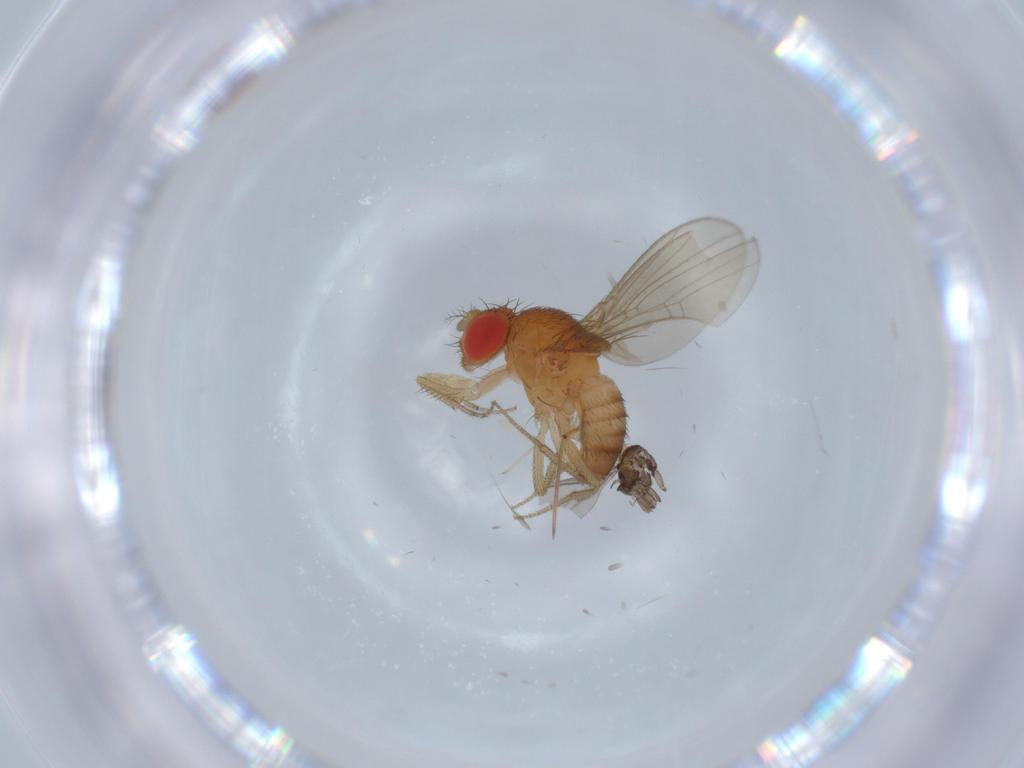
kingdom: Animalia
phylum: Arthropoda
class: Insecta
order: Diptera
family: Drosophilidae
